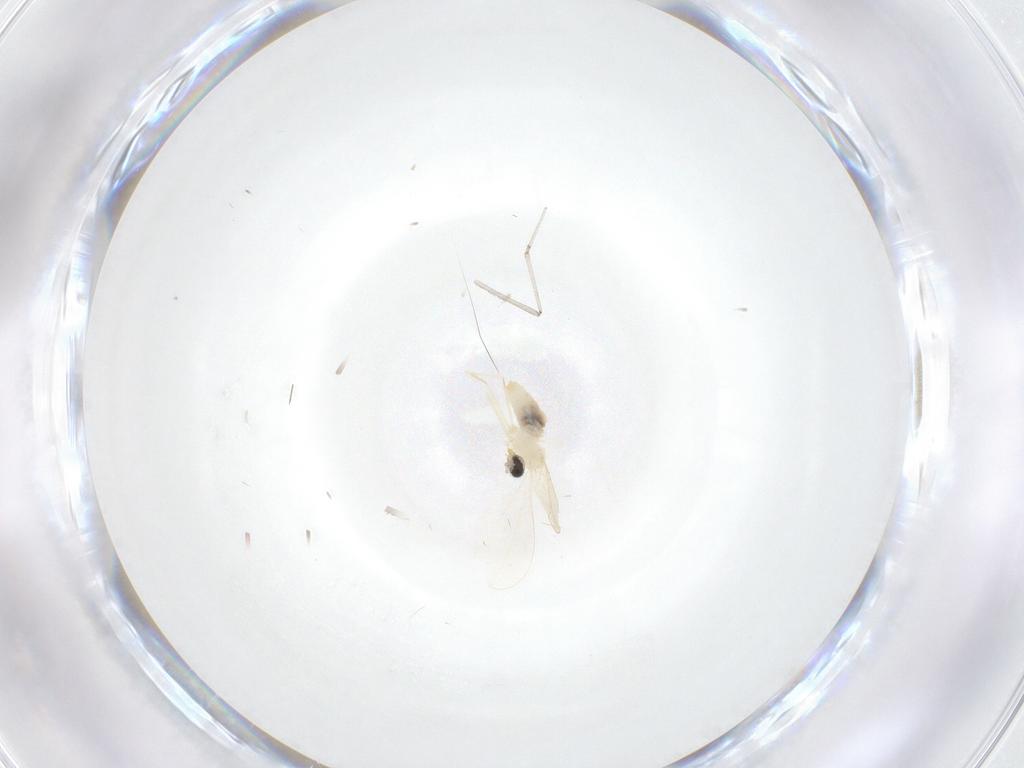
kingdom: Animalia
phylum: Arthropoda
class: Insecta
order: Diptera
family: Cecidomyiidae
